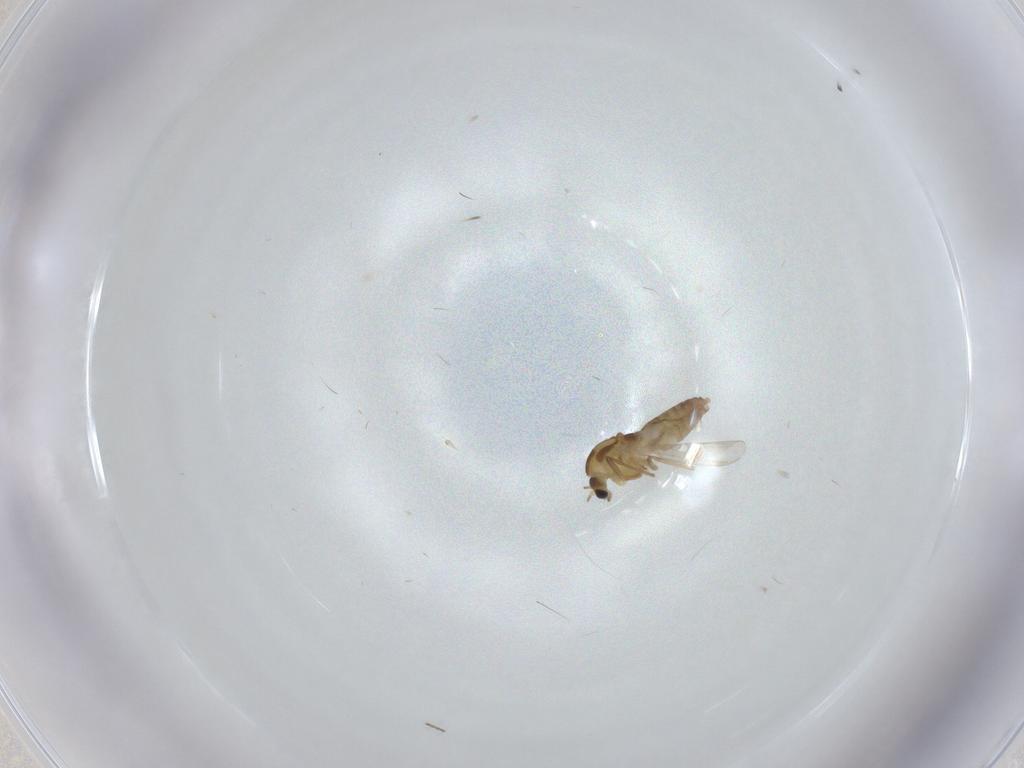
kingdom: Animalia
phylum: Arthropoda
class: Insecta
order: Diptera
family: Chironomidae
